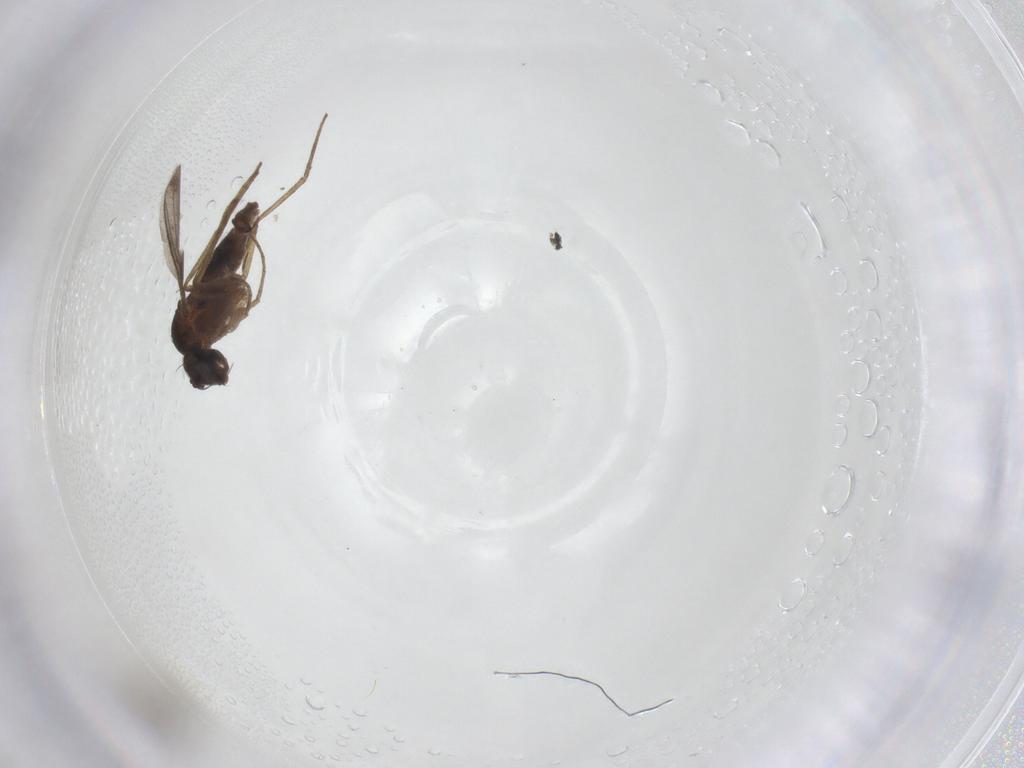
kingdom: Animalia
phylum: Arthropoda
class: Insecta
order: Diptera
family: Dolichopodidae
